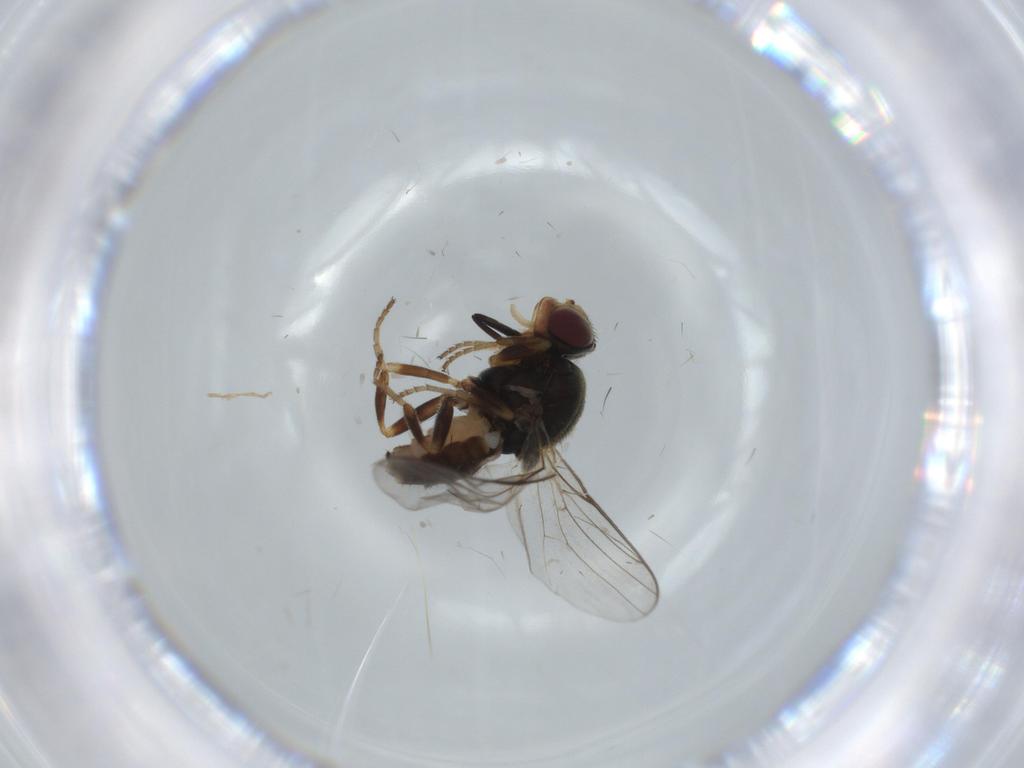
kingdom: Animalia
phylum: Arthropoda
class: Insecta
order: Diptera
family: Chloropidae
